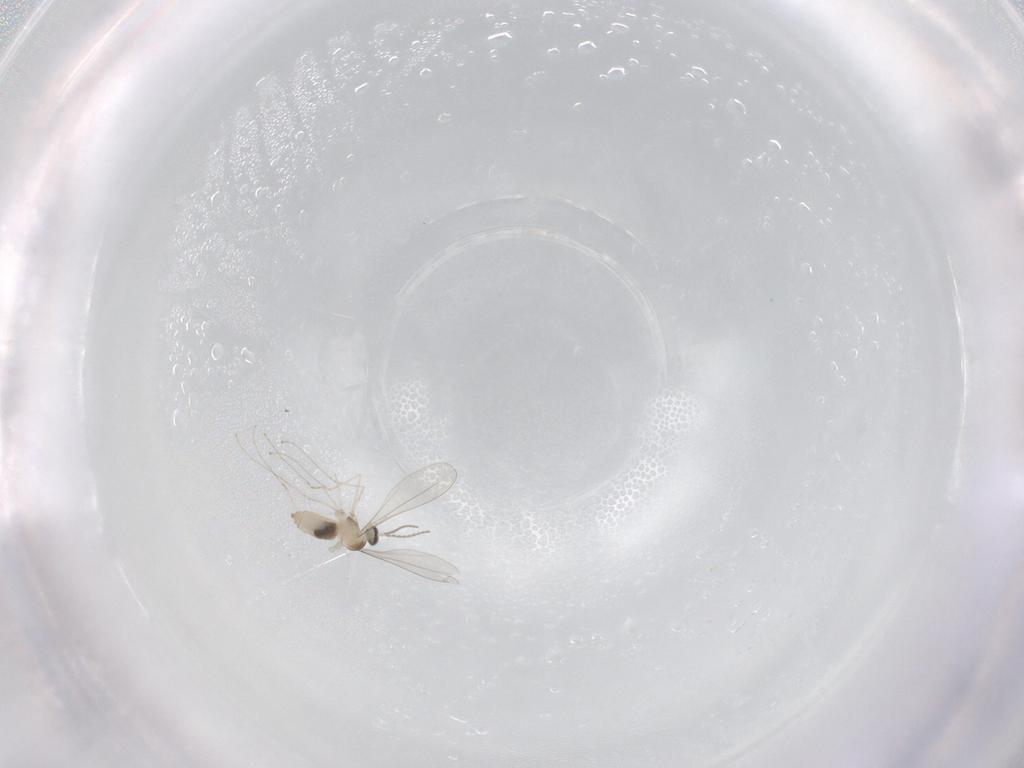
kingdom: Animalia
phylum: Arthropoda
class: Insecta
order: Diptera
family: Cecidomyiidae
